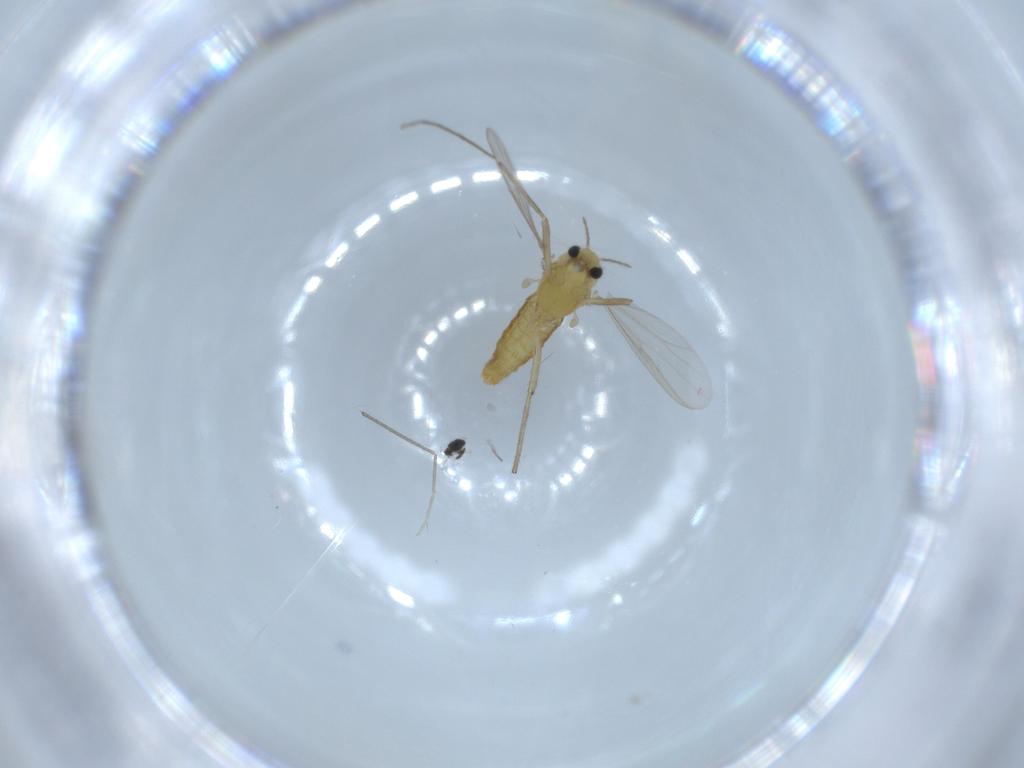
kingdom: Animalia
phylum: Arthropoda
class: Insecta
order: Diptera
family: Chironomidae
